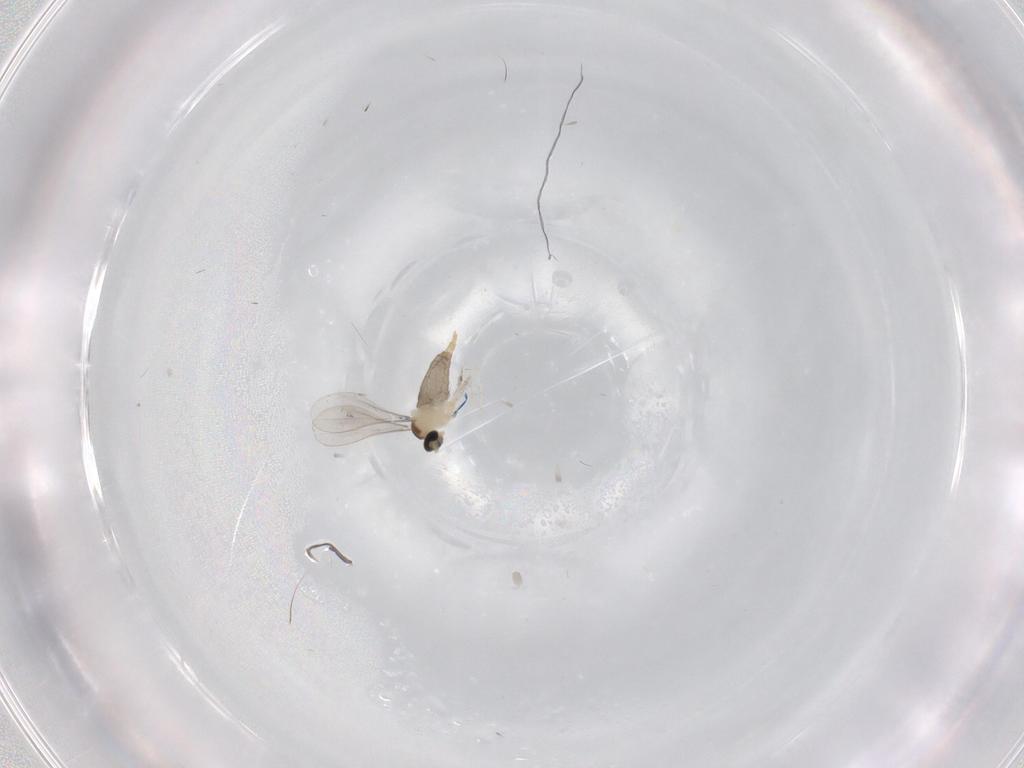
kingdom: Animalia
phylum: Arthropoda
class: Insecta
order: Diptera
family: Cecidomyiidae
